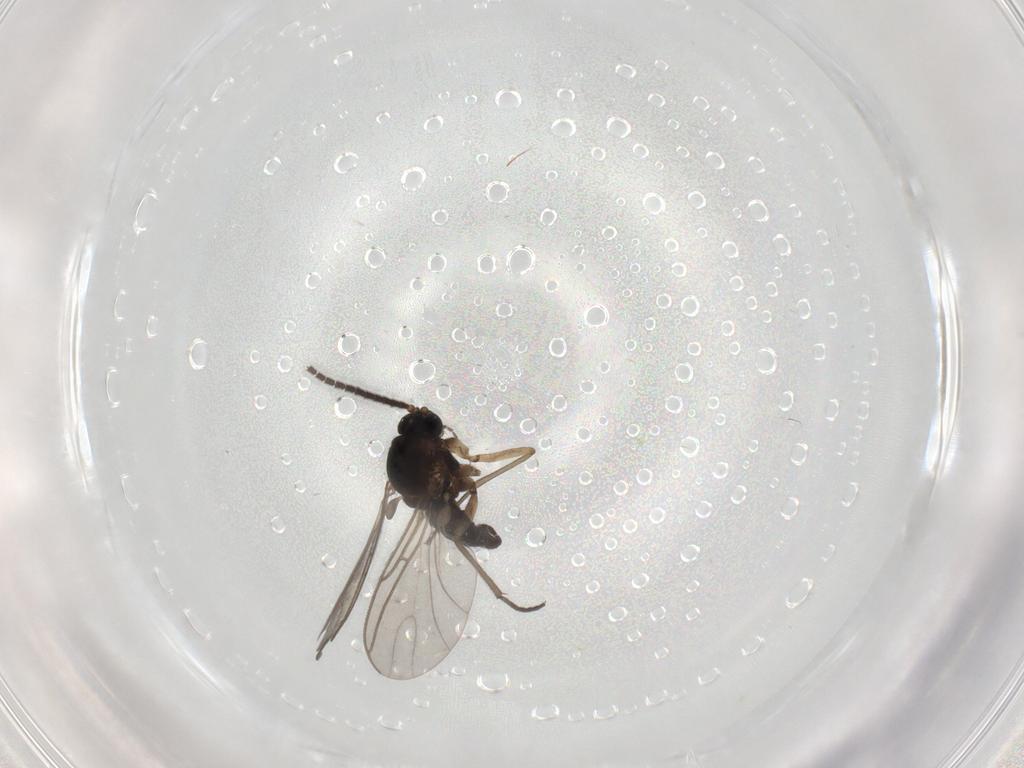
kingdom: Animalia
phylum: Arthropoda
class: Insecta
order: Diptera
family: Sciaridae
